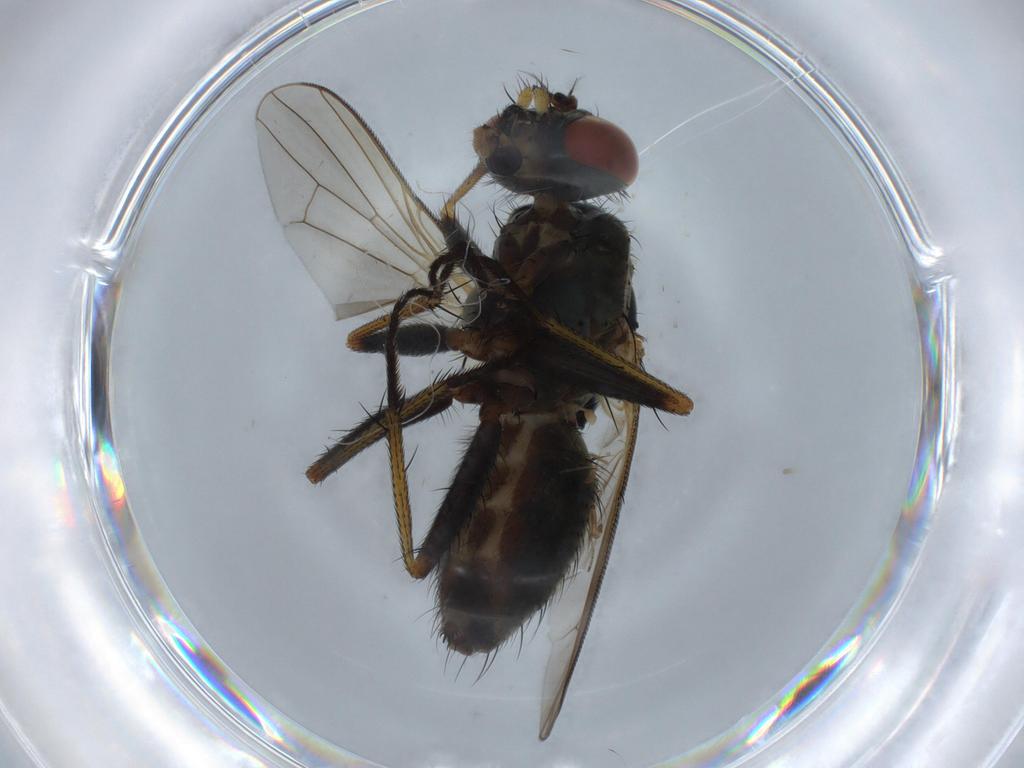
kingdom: Animalia
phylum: Arthropoda
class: Insecta
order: Diptera
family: Muscidae
